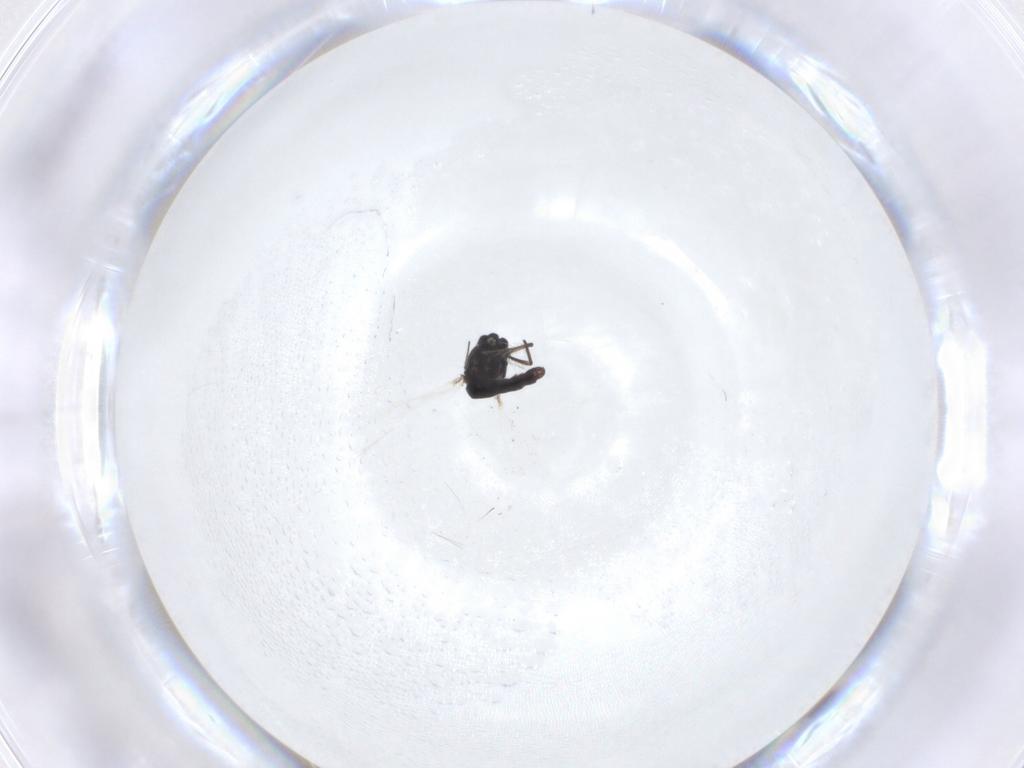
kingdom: Animalia
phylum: Arthropoda
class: Insecta
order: Diptera
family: Chironomidae
